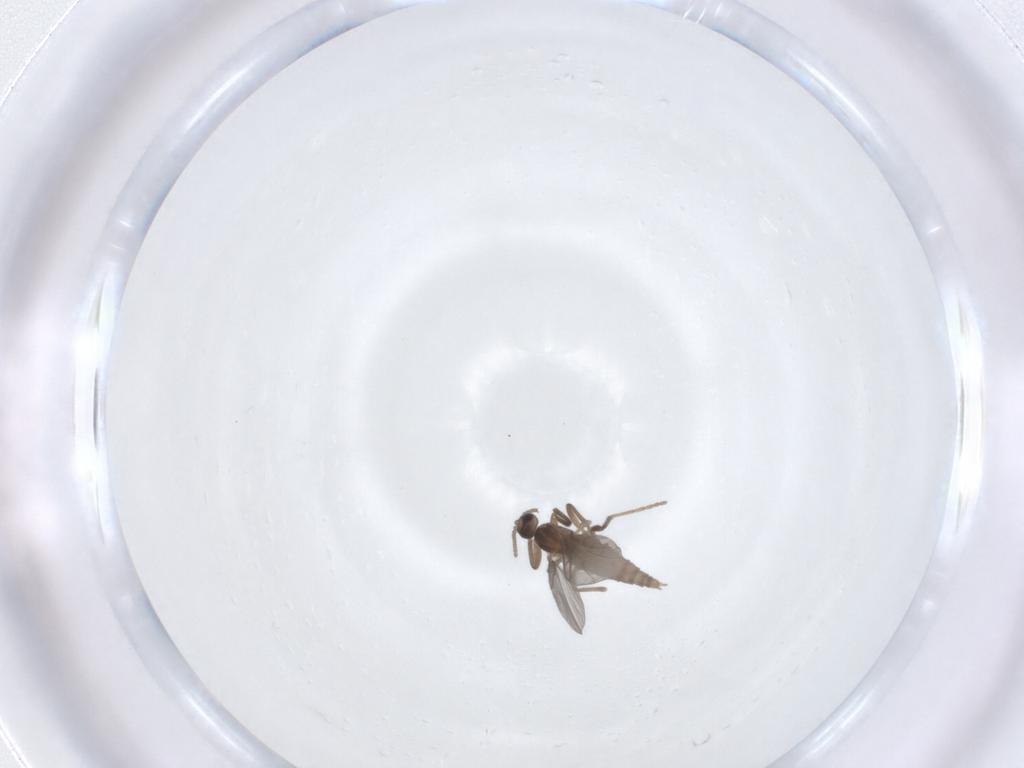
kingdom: Animalia
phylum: Arthropoda
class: Insecta
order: Diptera
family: Cecidomyiidae
